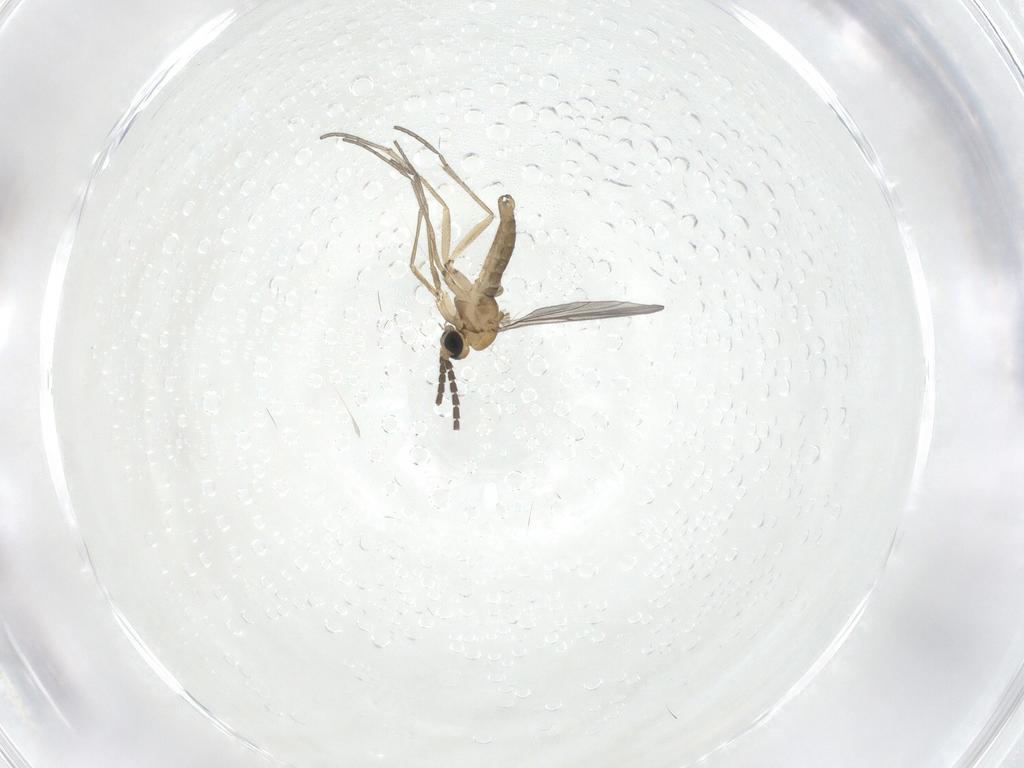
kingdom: Animalia
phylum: Arthropoda
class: Insecta
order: Diptera
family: Sciaridae
